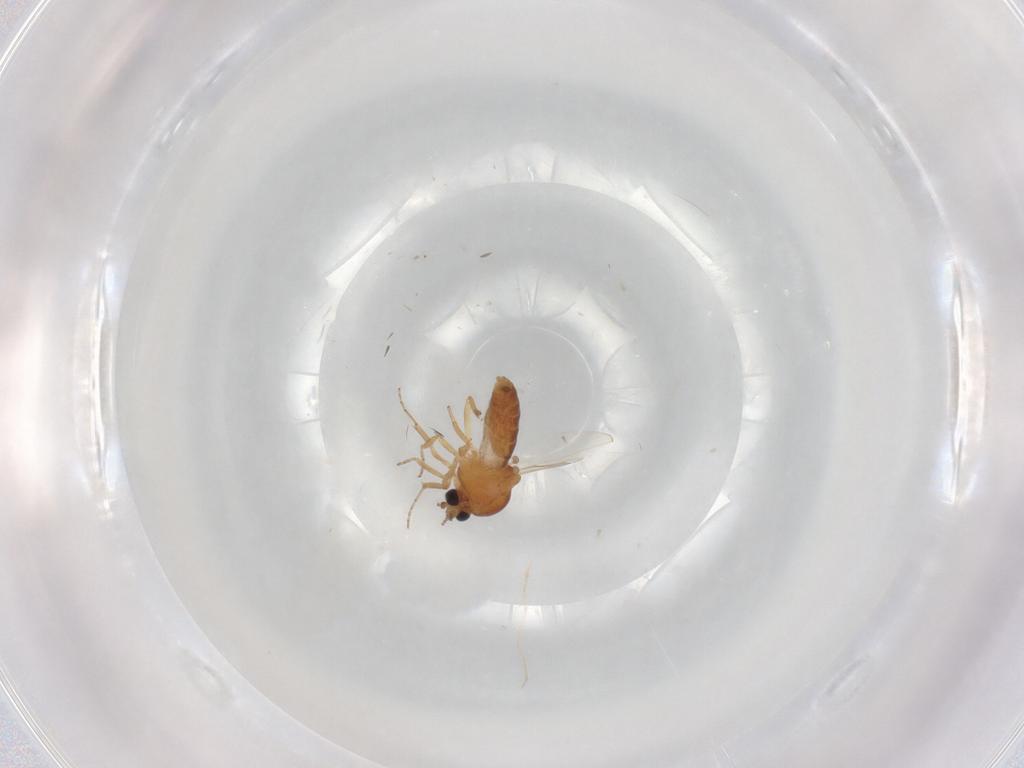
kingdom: Animalia
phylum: Arthropoda
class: Insecta
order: Diptera
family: Ceratopogonidae
